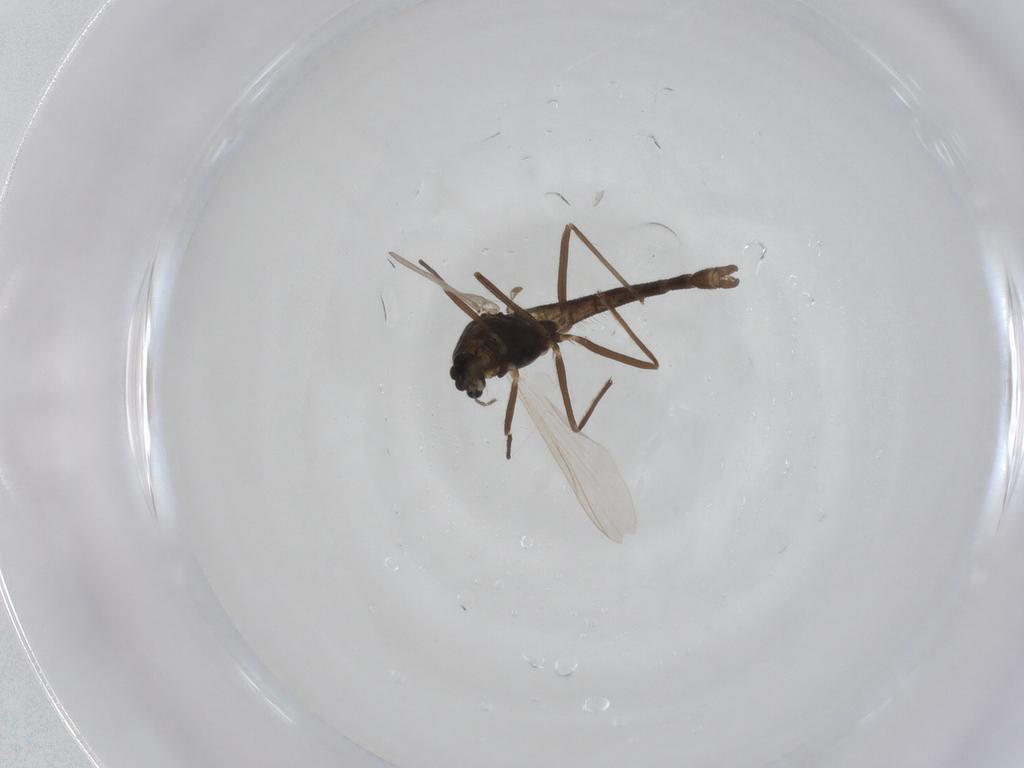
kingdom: Animalia
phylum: Arthropoda
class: Insecta
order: Diptera
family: Chironomidae
